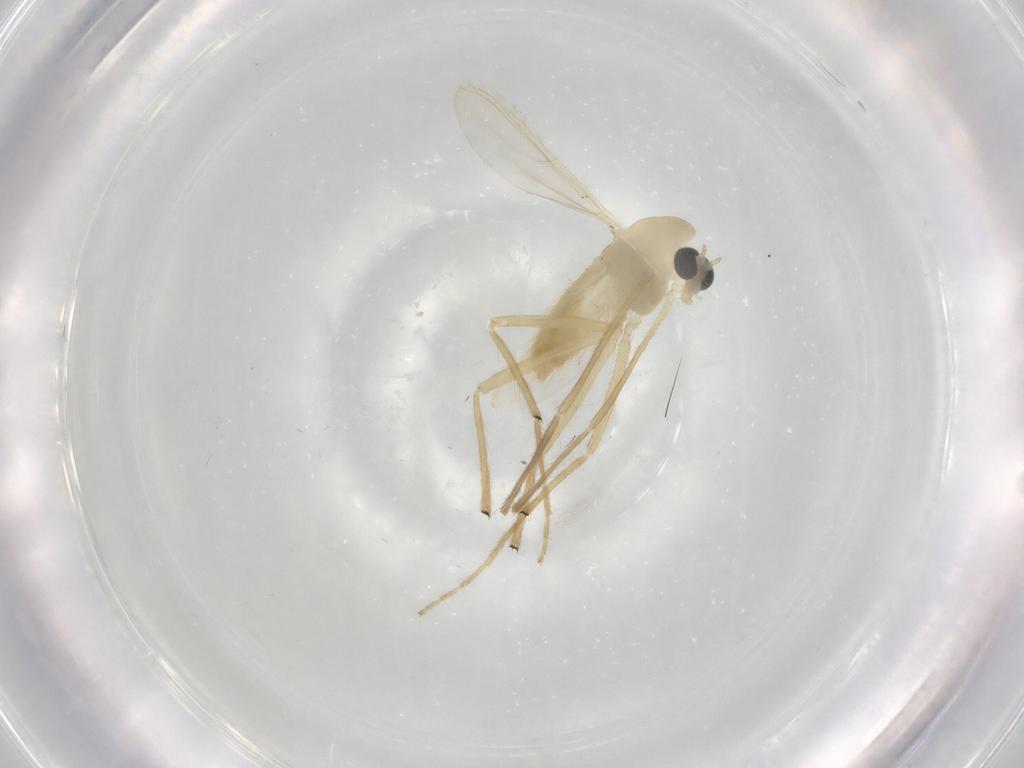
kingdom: Animalia
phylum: Arthropoda
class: Insecta
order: Diptera
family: Chironomidae
